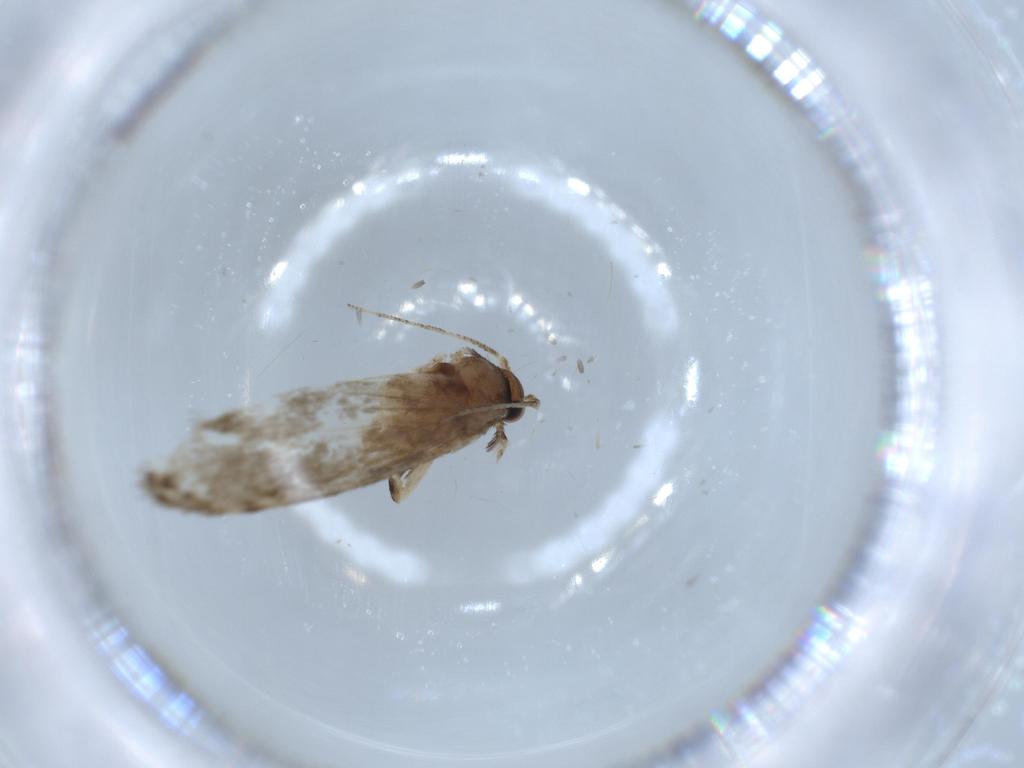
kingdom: Animalia
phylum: Arthropoda
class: Insecta
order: Lepidoptera
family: Tineidae
